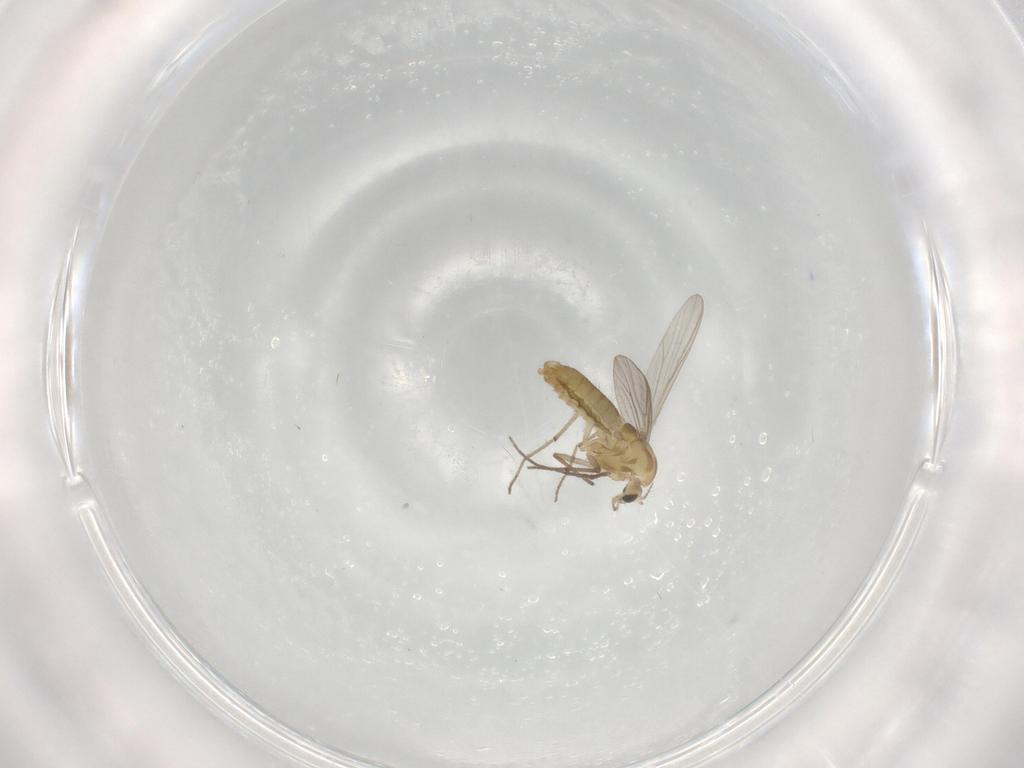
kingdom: Animalia
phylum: Arthropoda
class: Insecta
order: Diptera
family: Chironomidae
